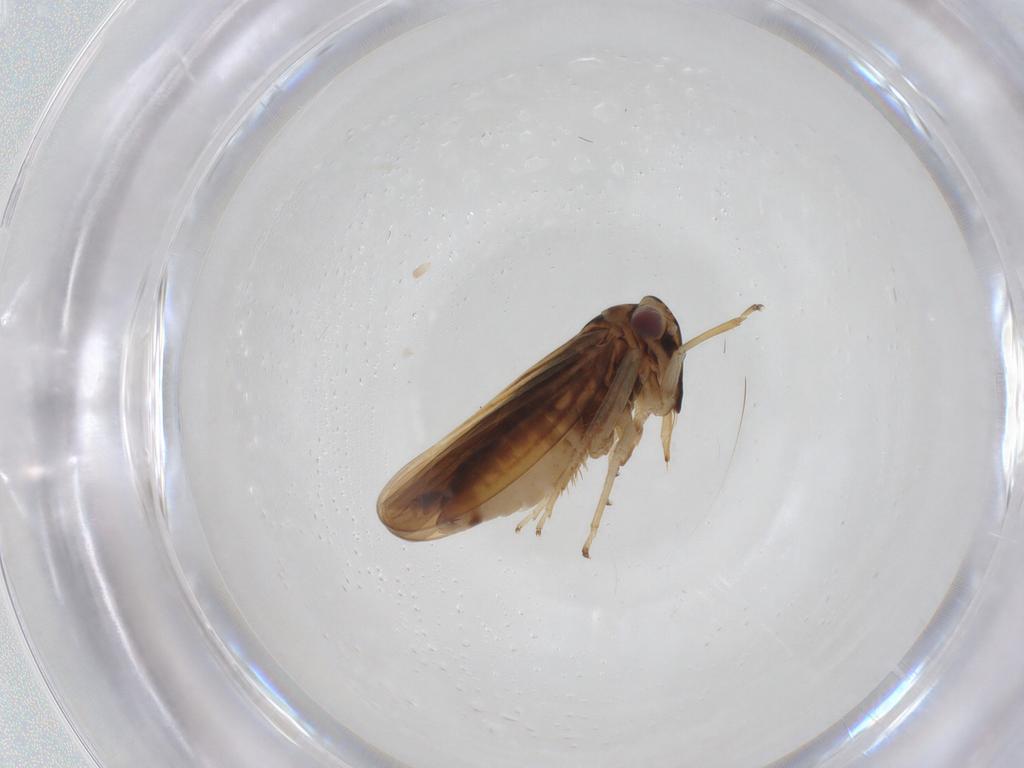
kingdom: Animalia
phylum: Arthropoda
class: Insecta
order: Hemiptera
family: Cicadellidae
